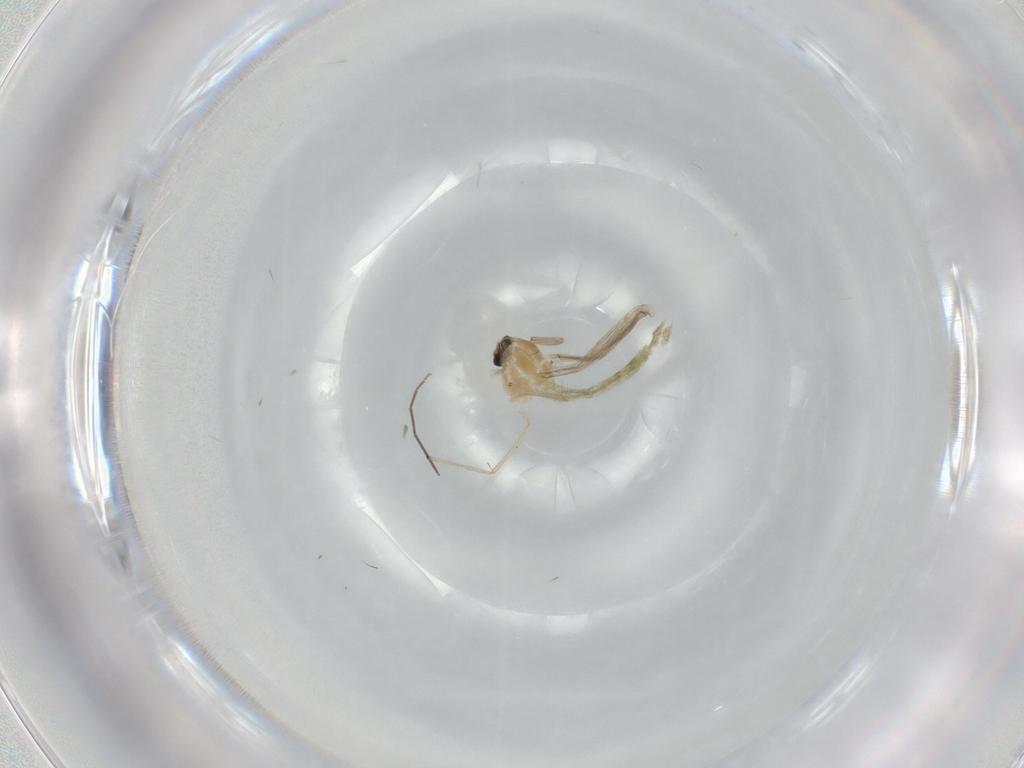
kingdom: Animalia
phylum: Arthropoda
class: Insecta
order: Diptera
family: Micropezidae
